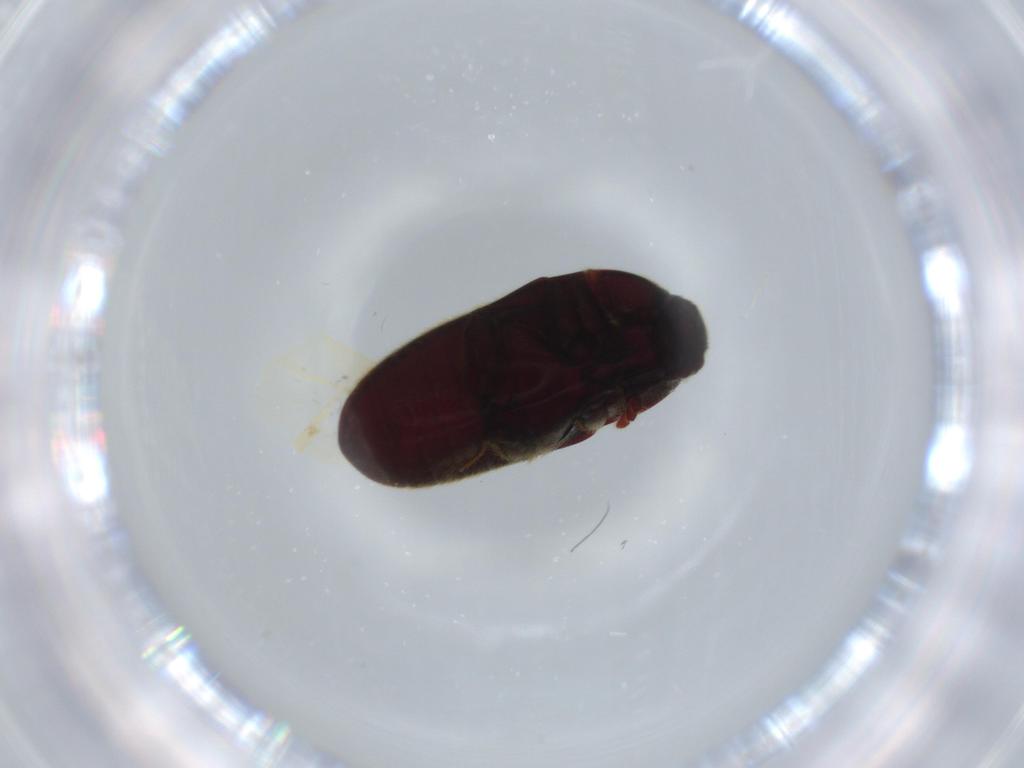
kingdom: Animalia
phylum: Arthropoda
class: Insecta
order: Coleoptera
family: Throscidae
